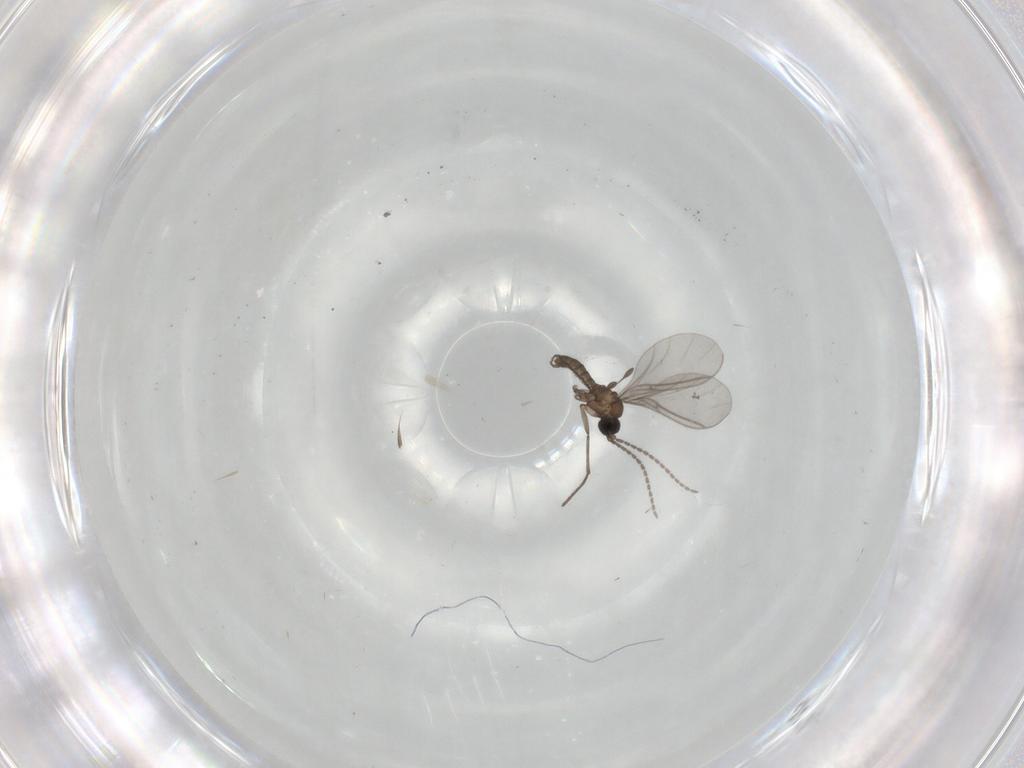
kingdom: Animalia
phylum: Arthropoda
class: Insecta
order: Diptera
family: Sciaridae
